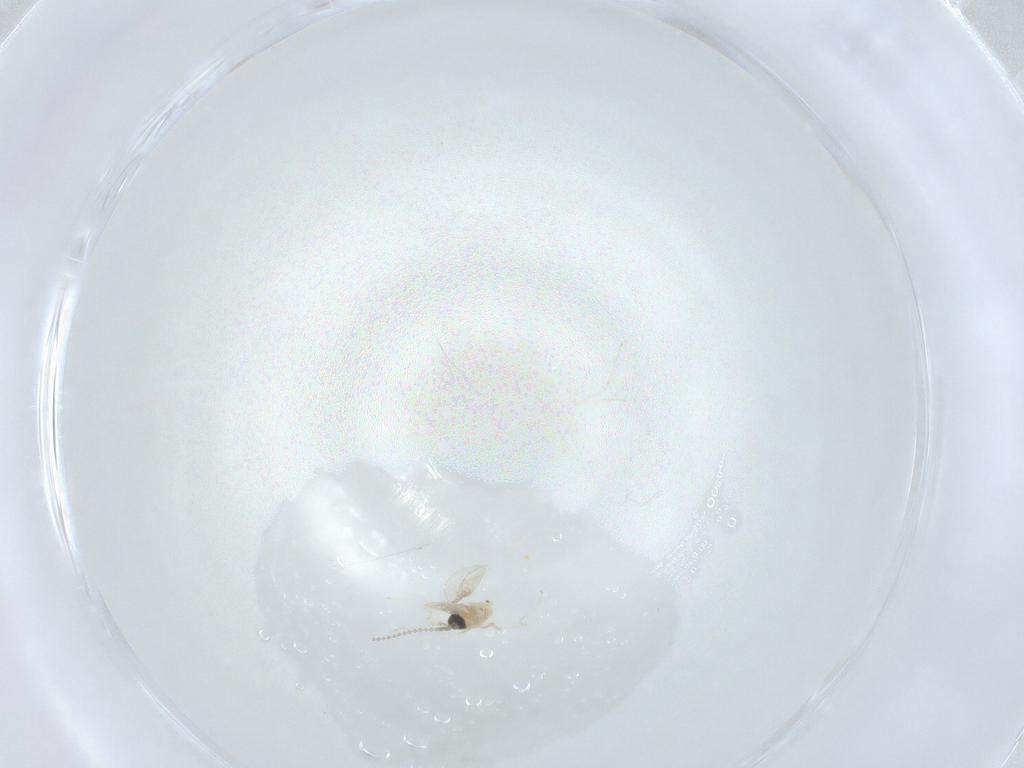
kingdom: Animalia
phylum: Arthropoda
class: Insecta
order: Diptera
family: Cecidomyiidae
